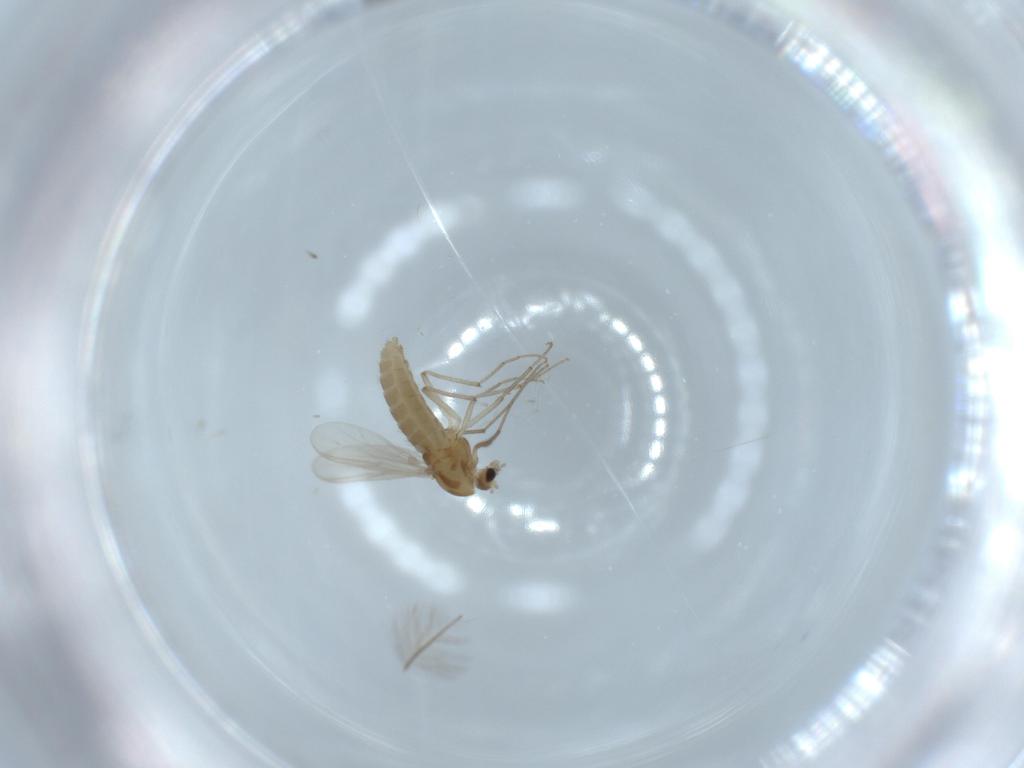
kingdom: Animalia
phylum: Arthropoda
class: Insecta
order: Diptera
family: Chironomidae
